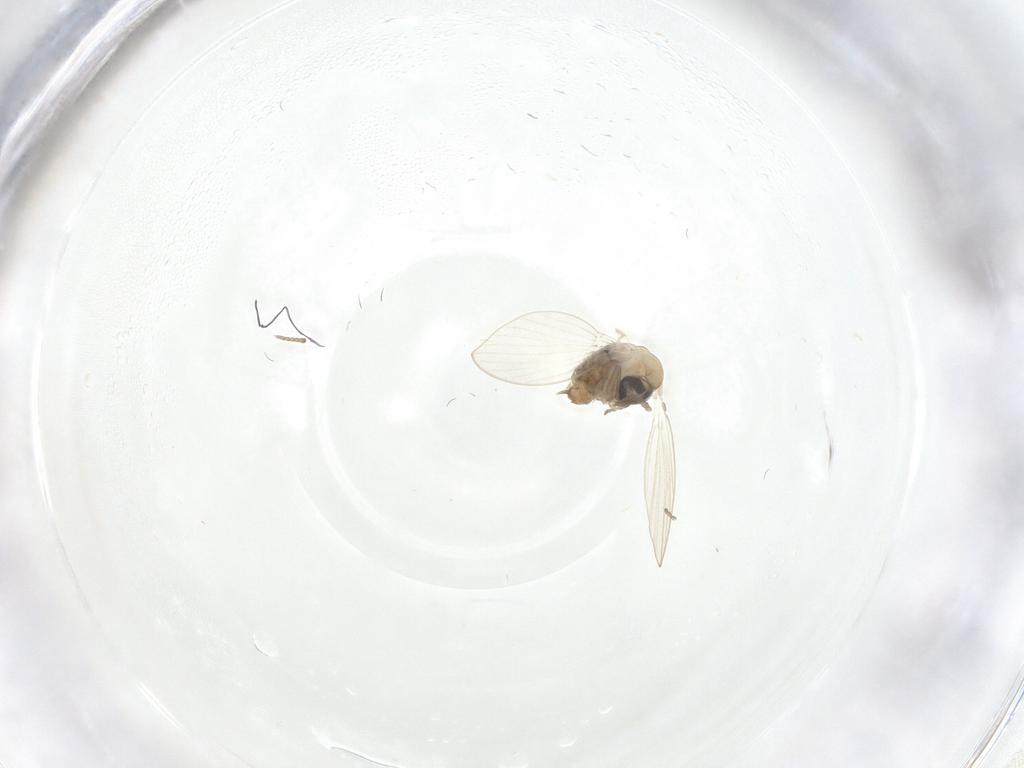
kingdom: Animalia
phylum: Arthropoda
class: Insecta
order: Diptera
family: Psychodidae
